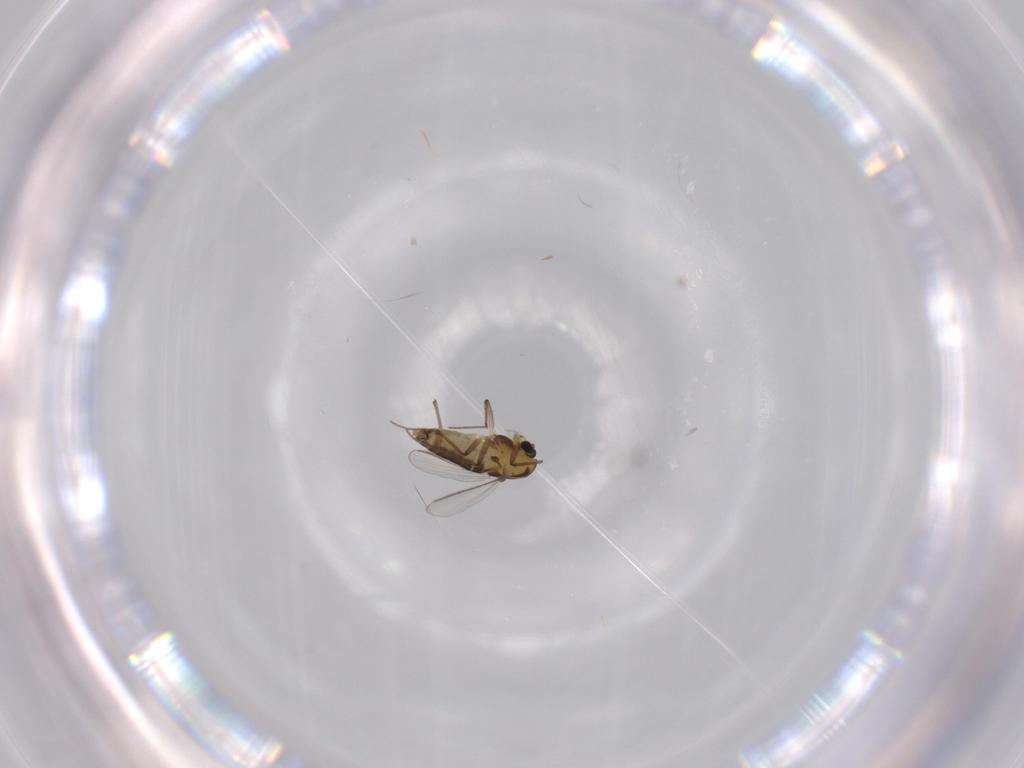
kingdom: Animalia
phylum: Arthropoda
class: Insecta
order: Diptera
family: Chironomidae
